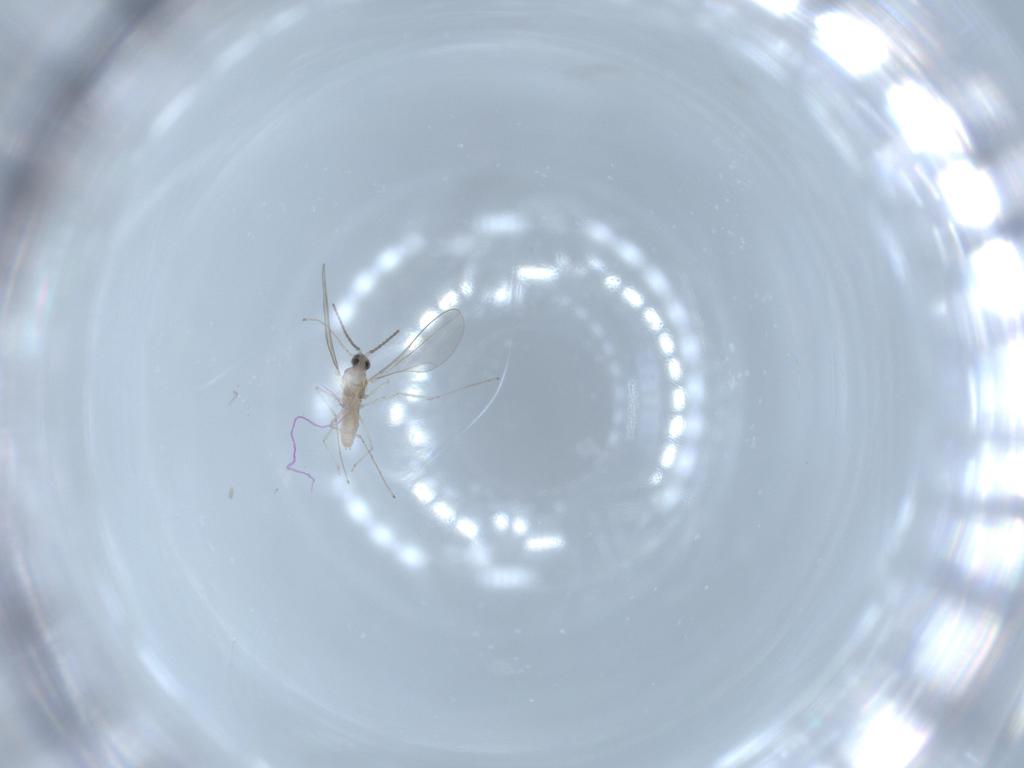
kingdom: Animalia
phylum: Arthropoda
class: Insecta
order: Diptera
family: Cecidomyiidae
